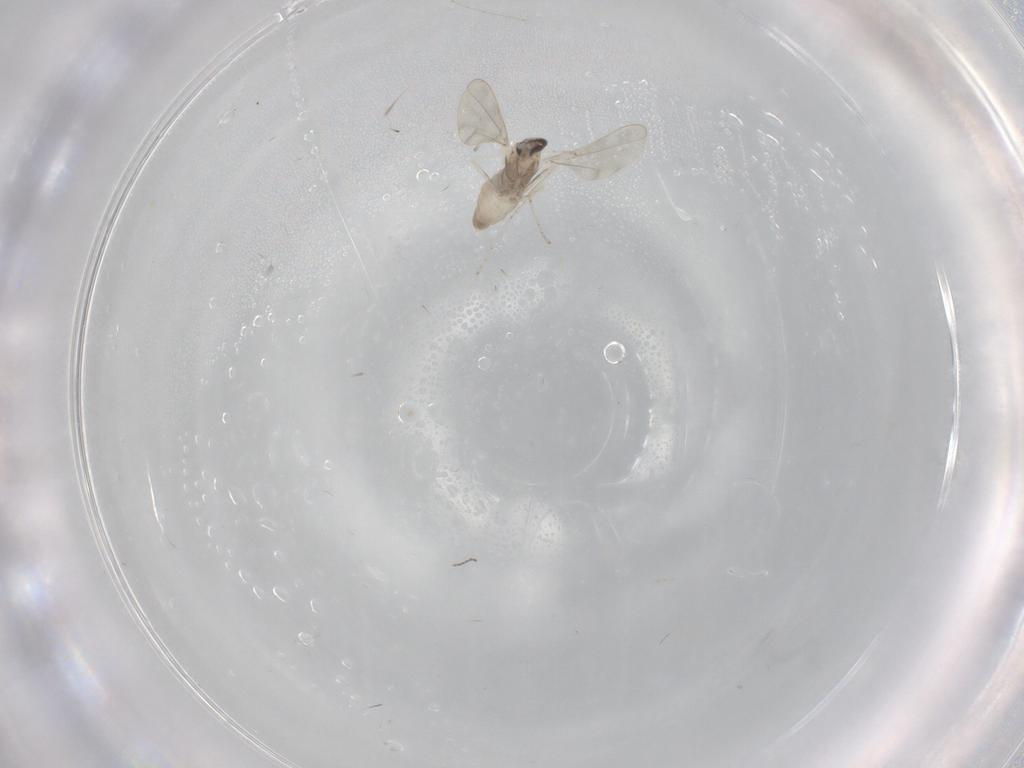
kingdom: Animalia
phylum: Arthropoda
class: Insecta
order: Diptera
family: Cecidomyiidae
